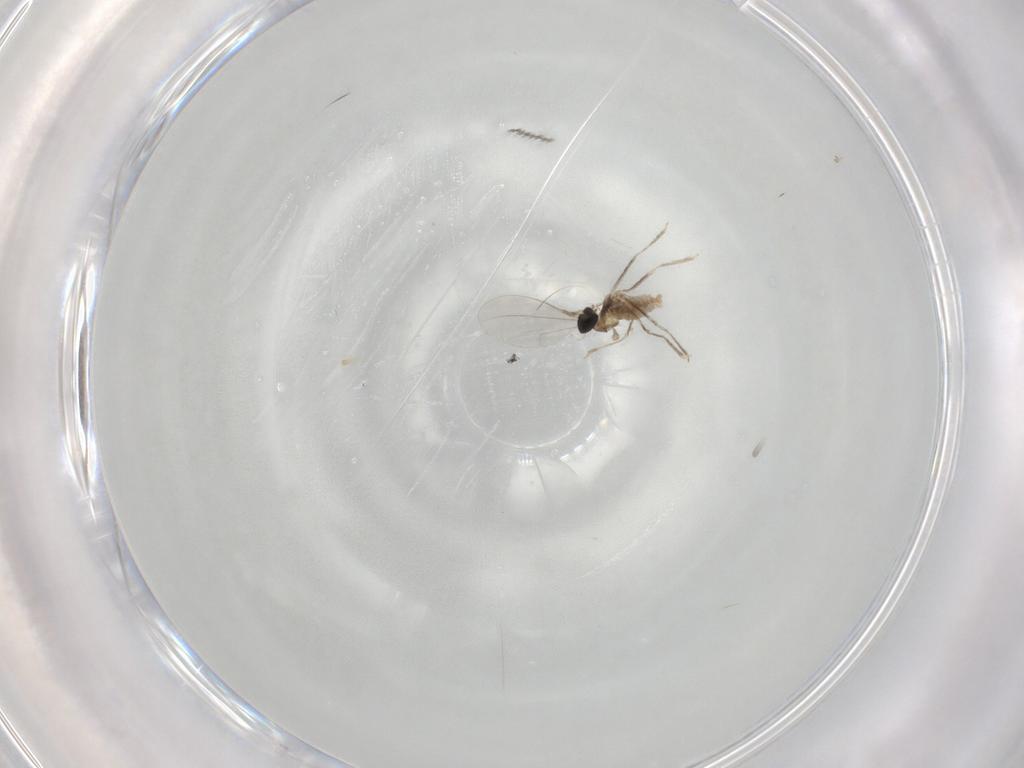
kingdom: Animalia
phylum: Arthropoda
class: Insecta
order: Diptera
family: Cecidomyiidae
